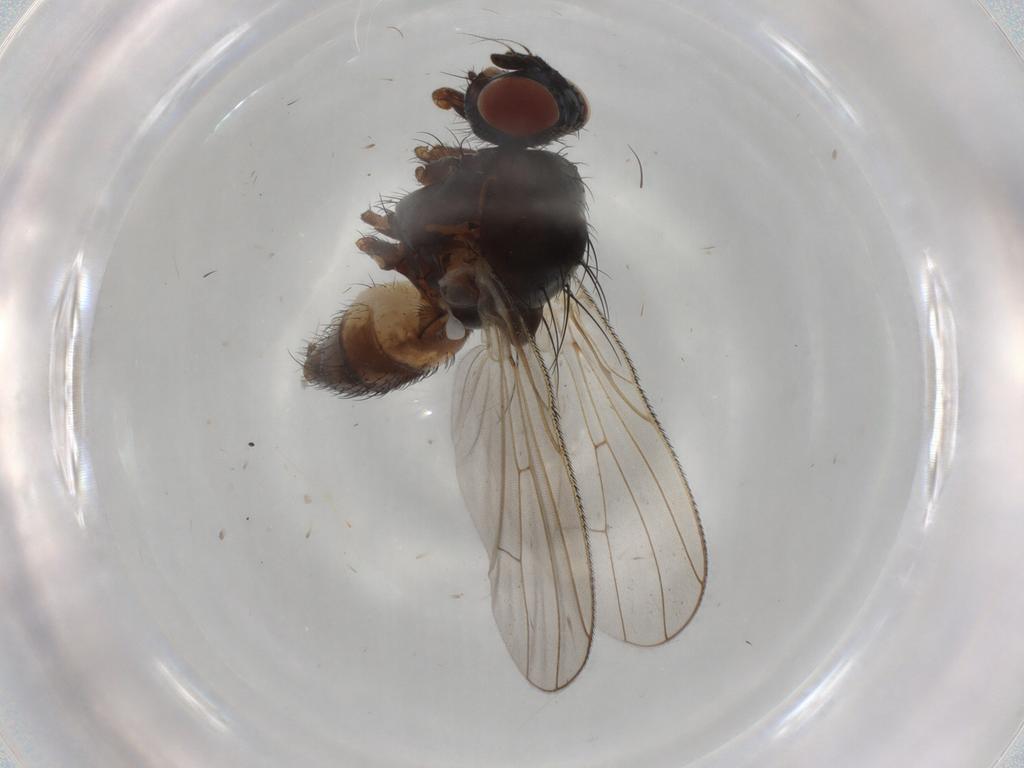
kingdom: Animalia
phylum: Arthropoda
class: Insecta
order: Diptera
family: Anthomyiidae
